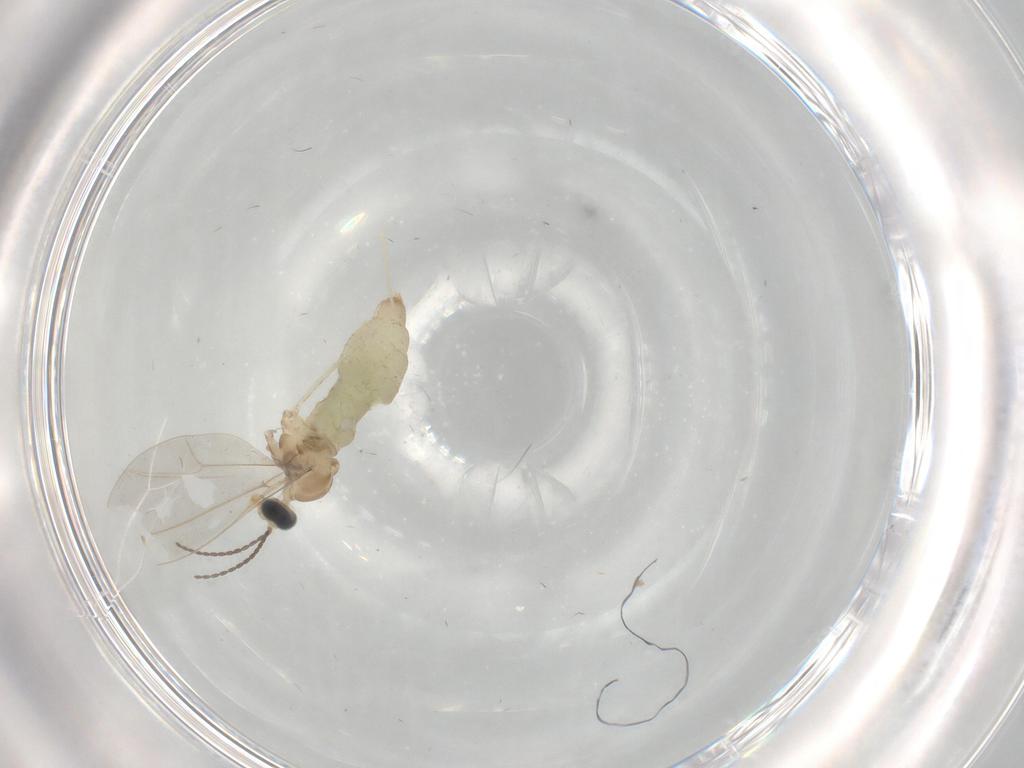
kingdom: Animalia
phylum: Arthropoda
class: Insecta
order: Diptera
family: Cecidomyiidae
